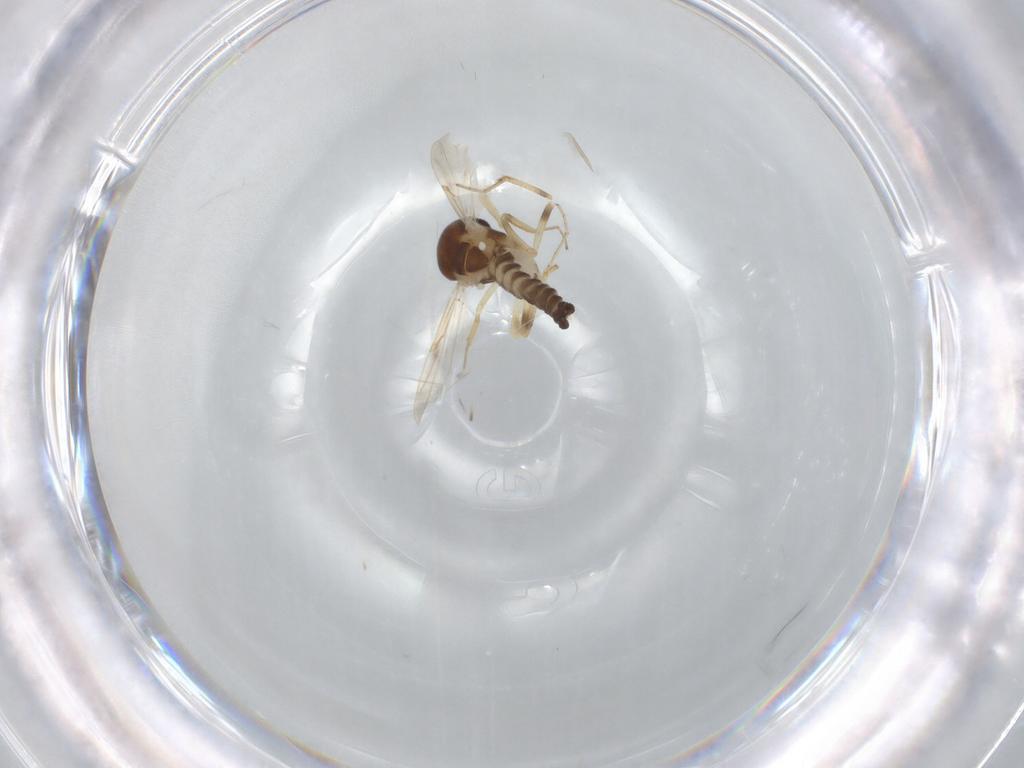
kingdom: Animalia
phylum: Arthropoda
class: Insecta
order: Diptera
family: Ceratopogonidae
